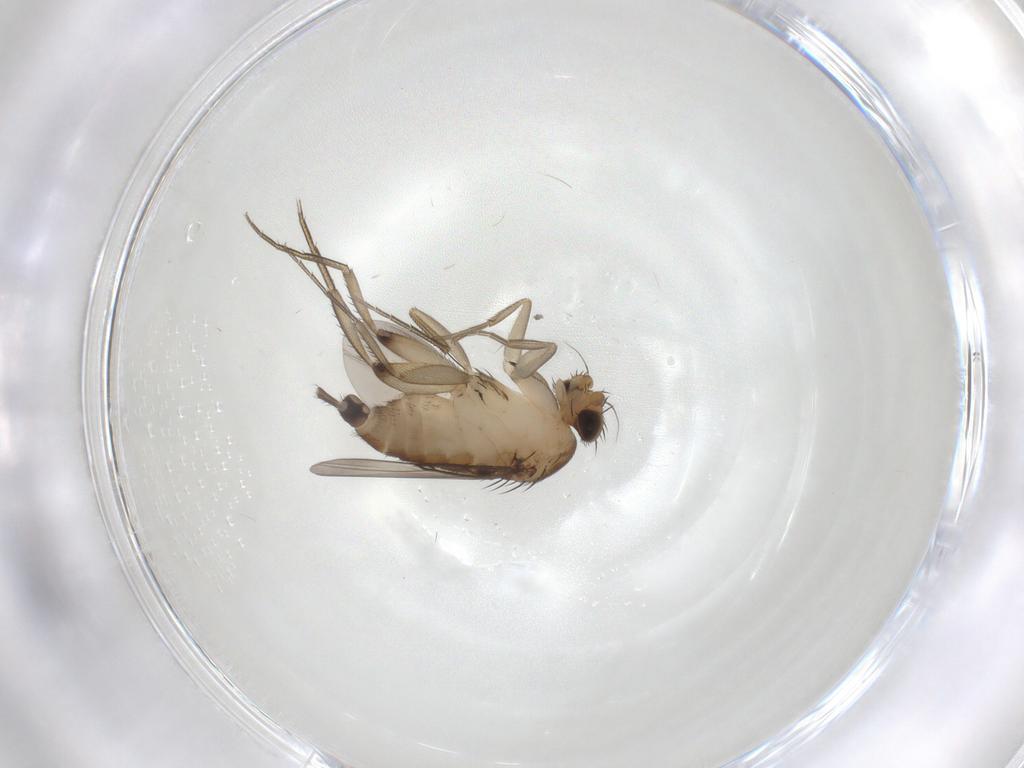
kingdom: Animalia
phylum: Arthropoda
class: Insecta
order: Diptera
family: Phoridae
